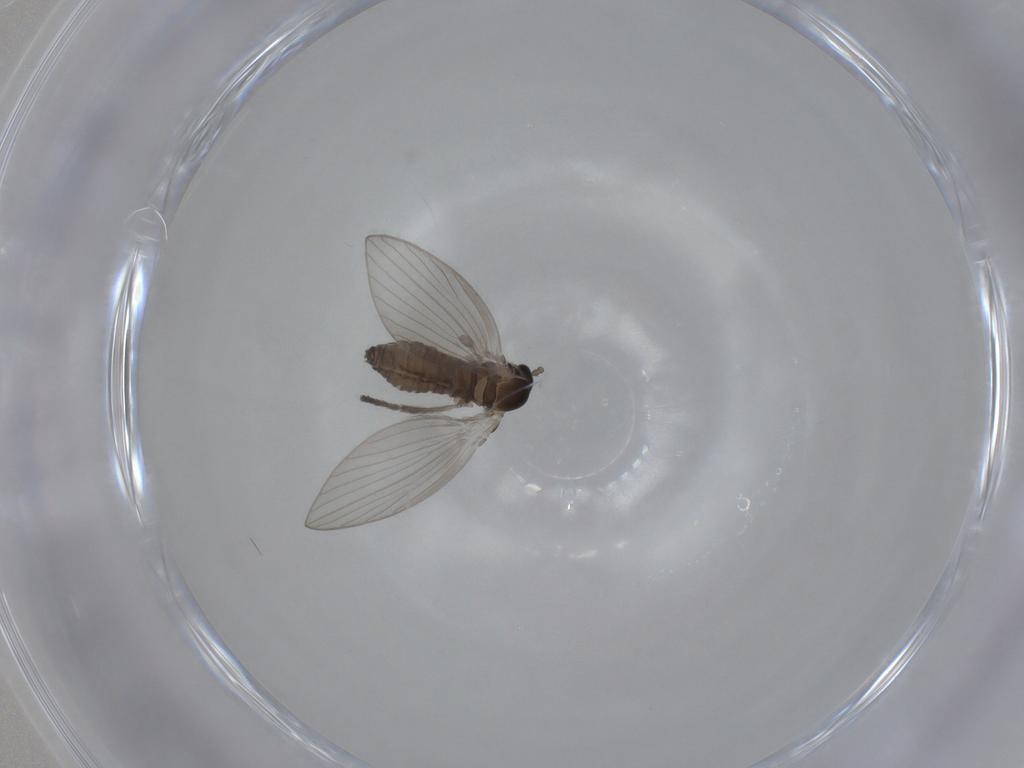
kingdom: Animalia
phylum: Arthropoda
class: Insecta
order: Diptera
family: Psychodidae
